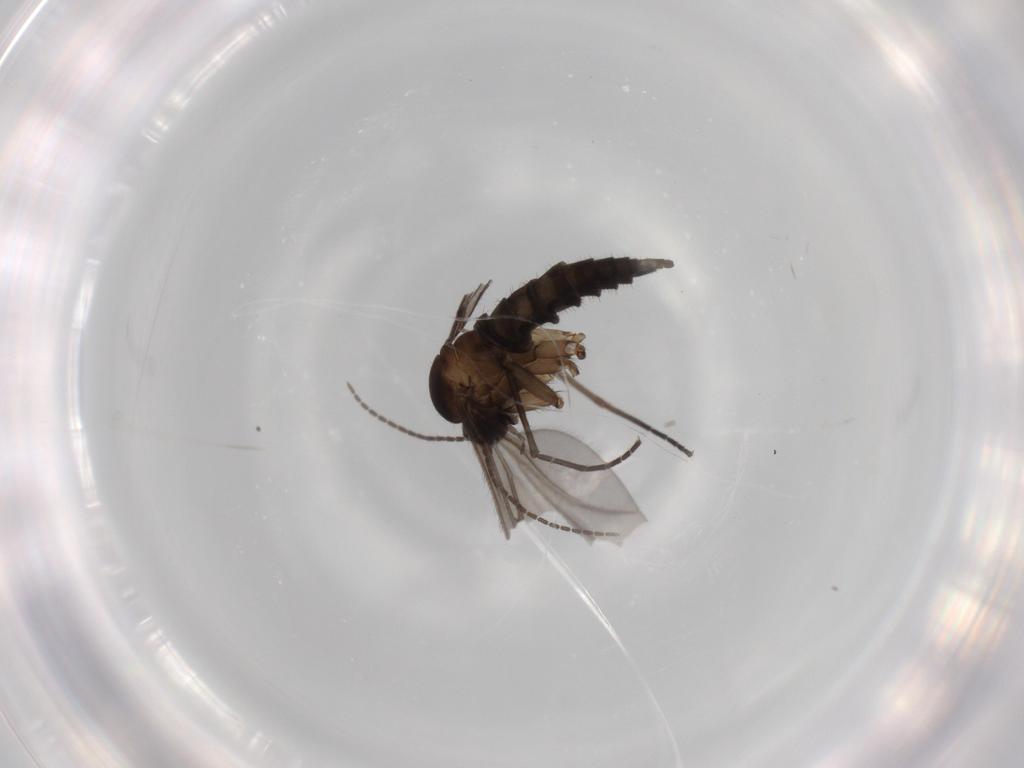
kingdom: Animalia
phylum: Arthropoda
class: Insecta
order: Diptera
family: Sciaridae
